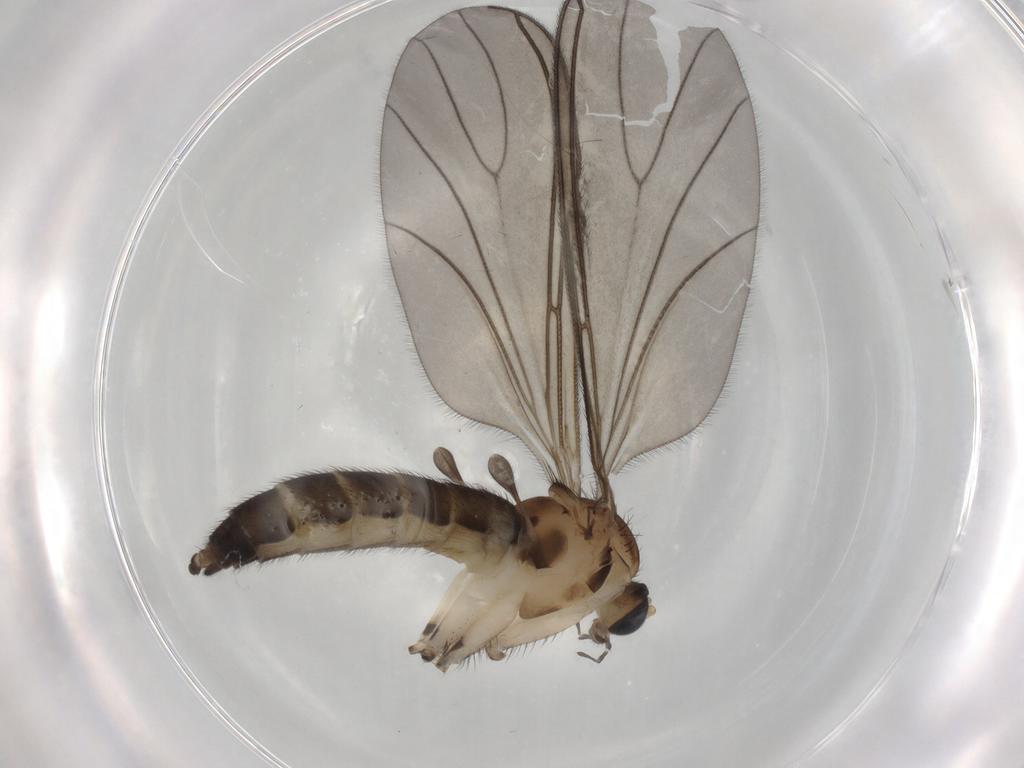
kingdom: Animalia
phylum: Arthropoda
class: Insecta
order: Diptera
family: Sciaridae
